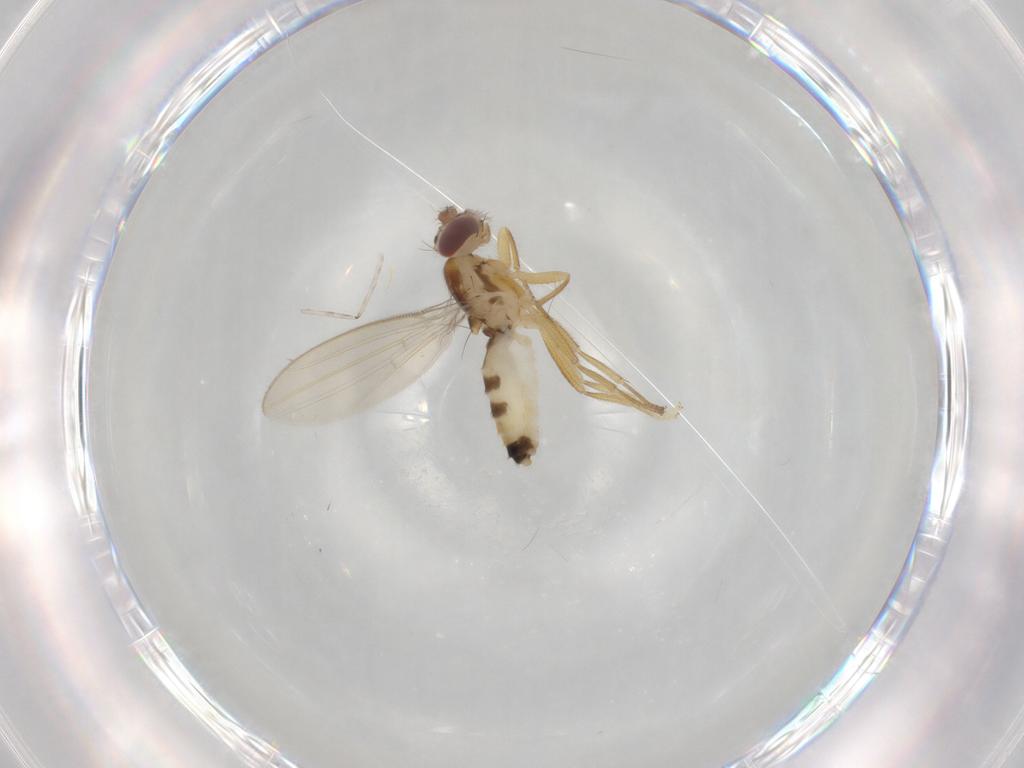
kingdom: Animalia
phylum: Arthropoda
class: Insecta
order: Diptera
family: Periscelididae
